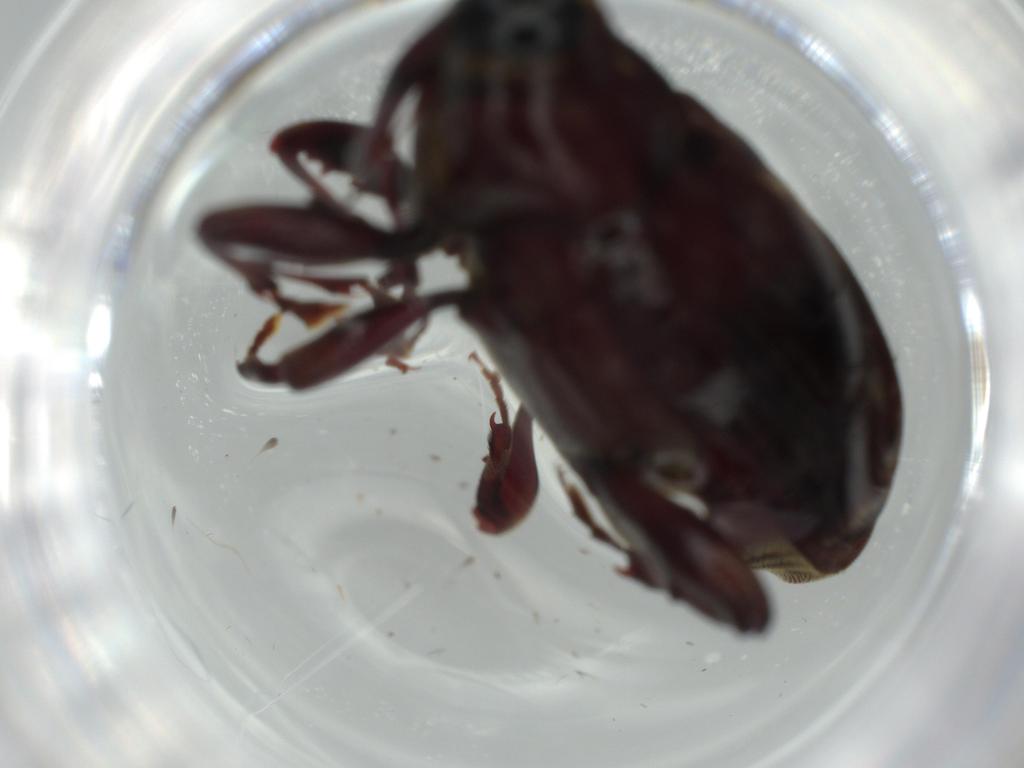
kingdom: Animalia
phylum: Arthropoda
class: Insecta
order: Coleoptera
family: Curculionidae
